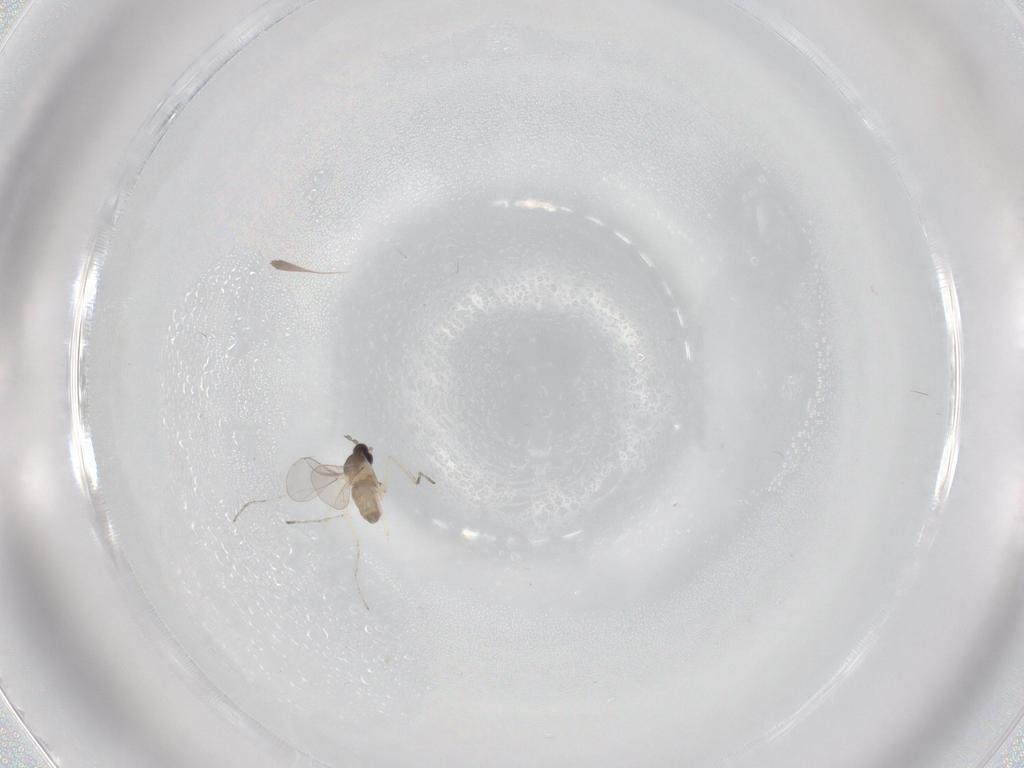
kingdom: Animalia
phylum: Arthropoda
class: Insecta
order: Diptera
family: Cecidomyiidae
